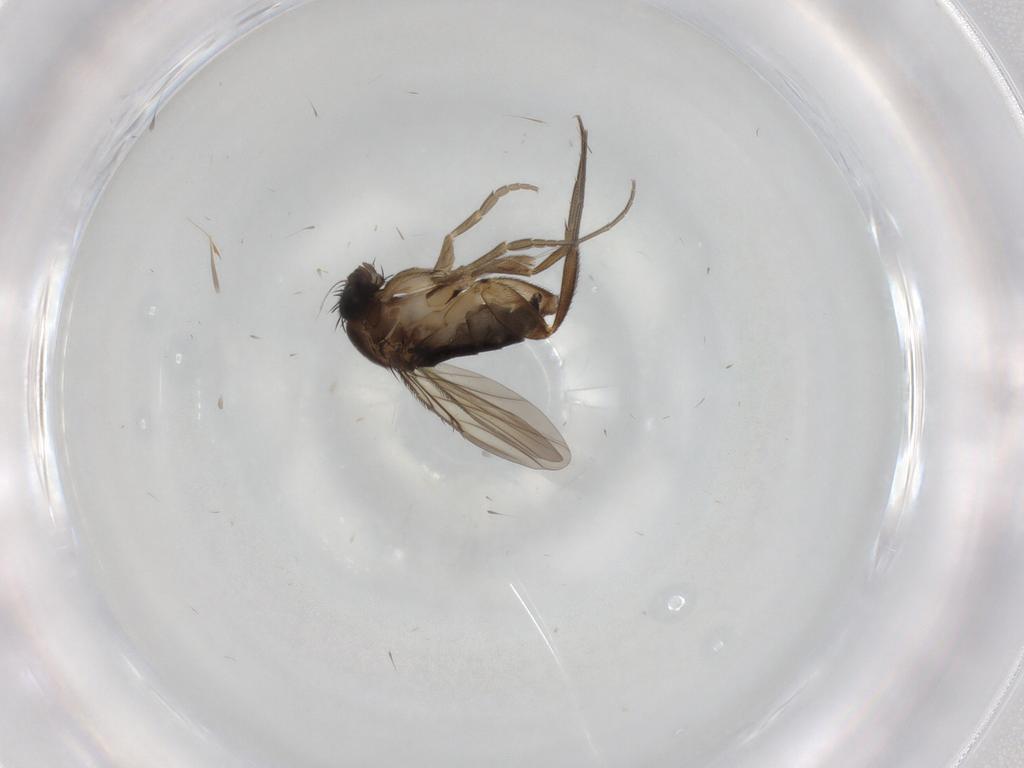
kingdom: Animalia
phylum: Arthropoda
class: Insecta
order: Diptera
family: Phoridae
